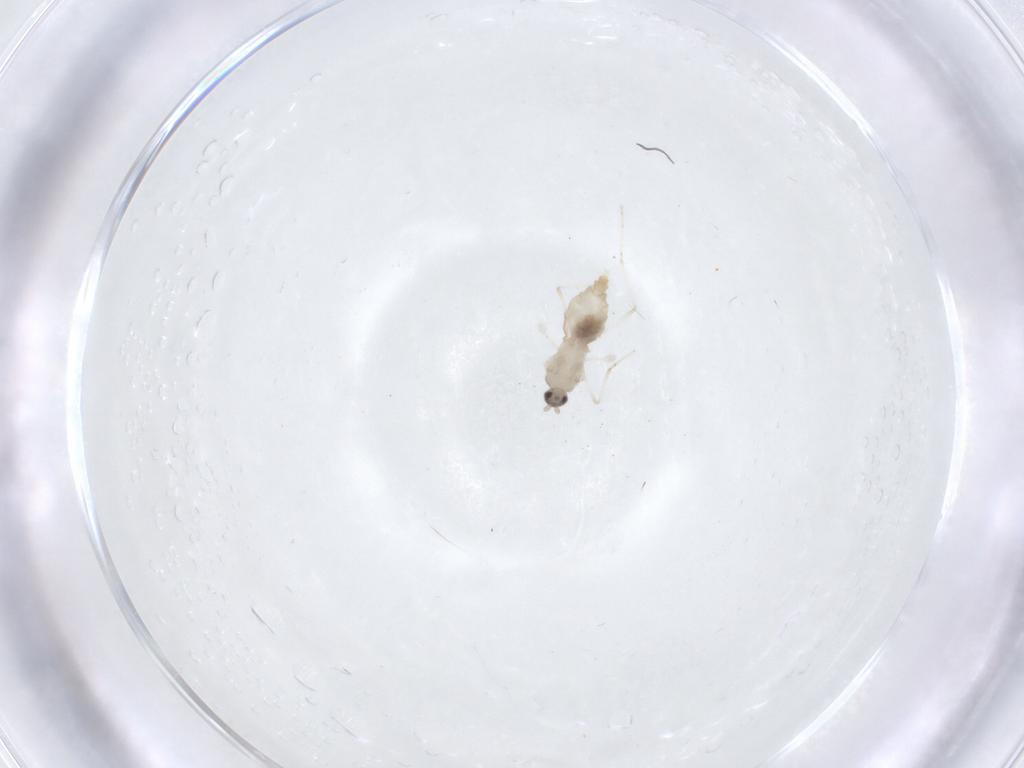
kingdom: Animalia
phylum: Arthropoda
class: Insecta
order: Diptera
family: Cecidomyiidae
